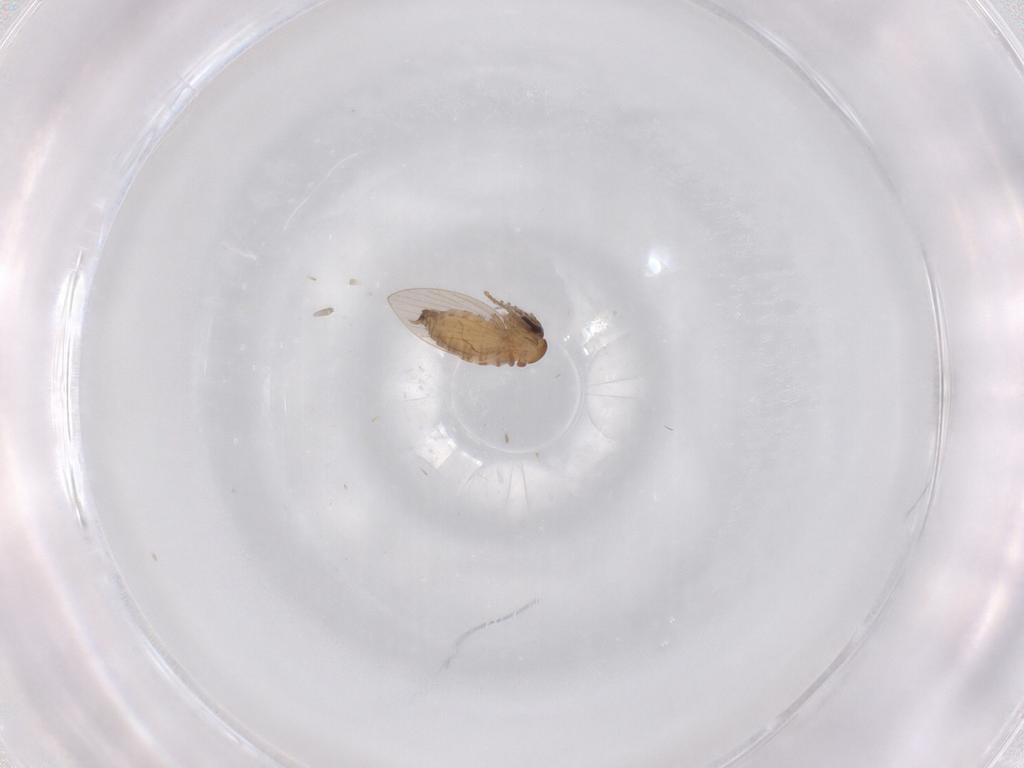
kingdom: Animalia
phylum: Arthropoda
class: Insecta
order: Diptera
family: Psychodidae
